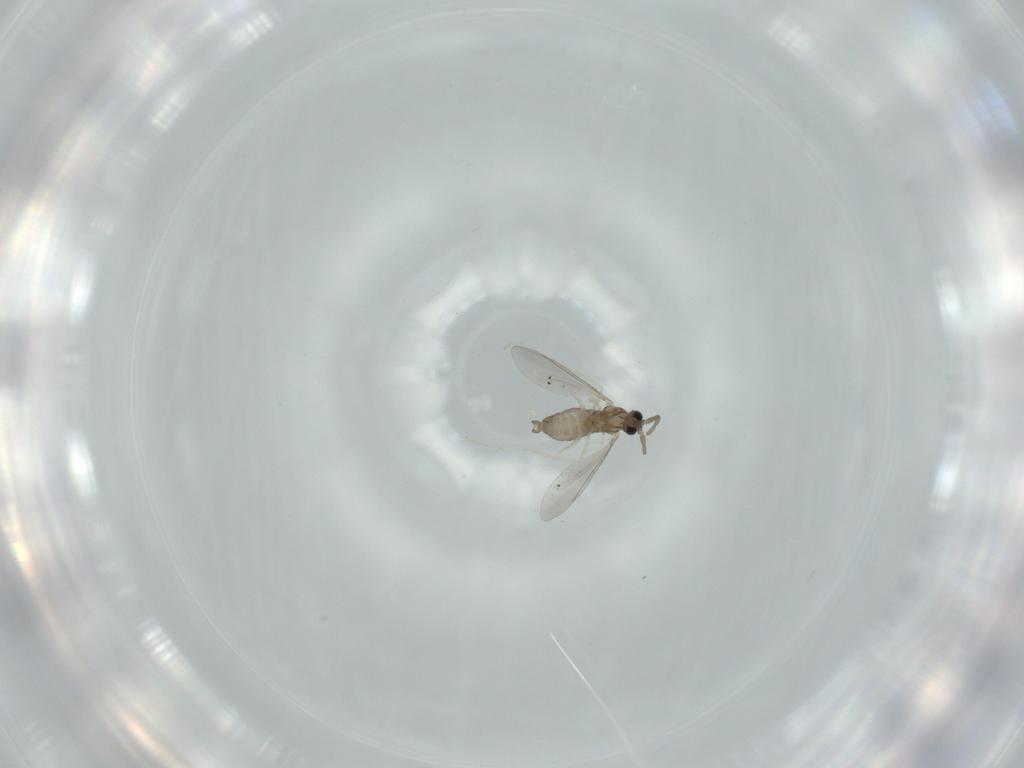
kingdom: Animalia
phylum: Arthropoda
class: Insecta
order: Diptera
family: Cecidomyiidae
